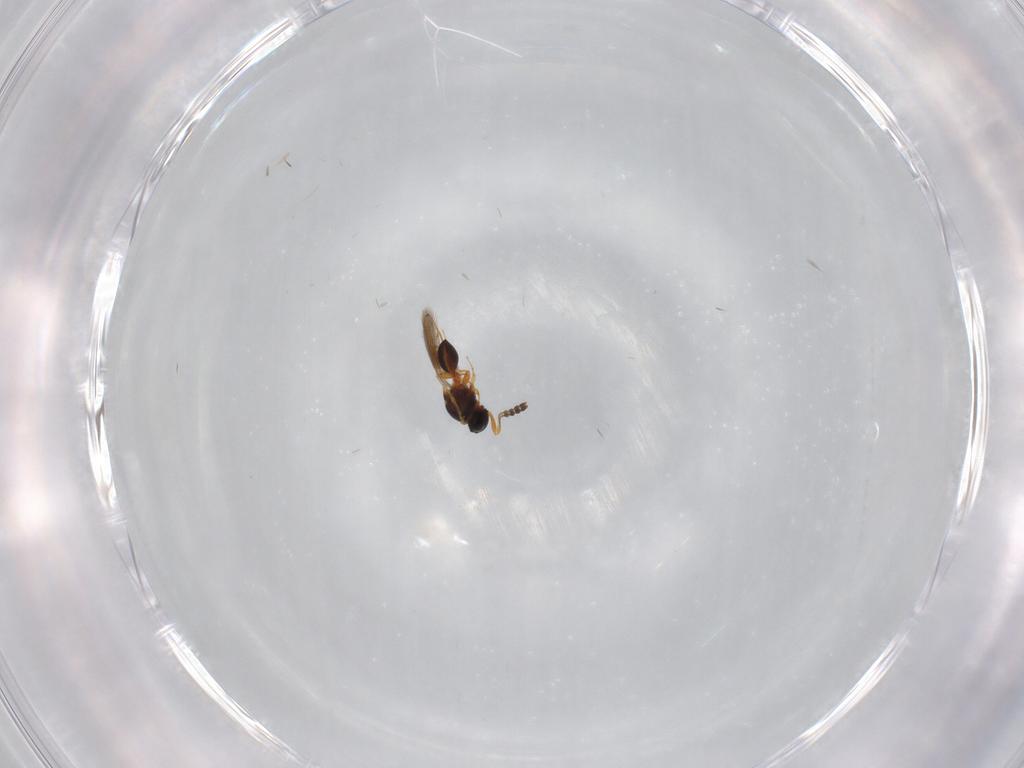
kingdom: Animalia
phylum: Arthropoda
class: Insecta
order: Hymenoptera
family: Platygastridae
